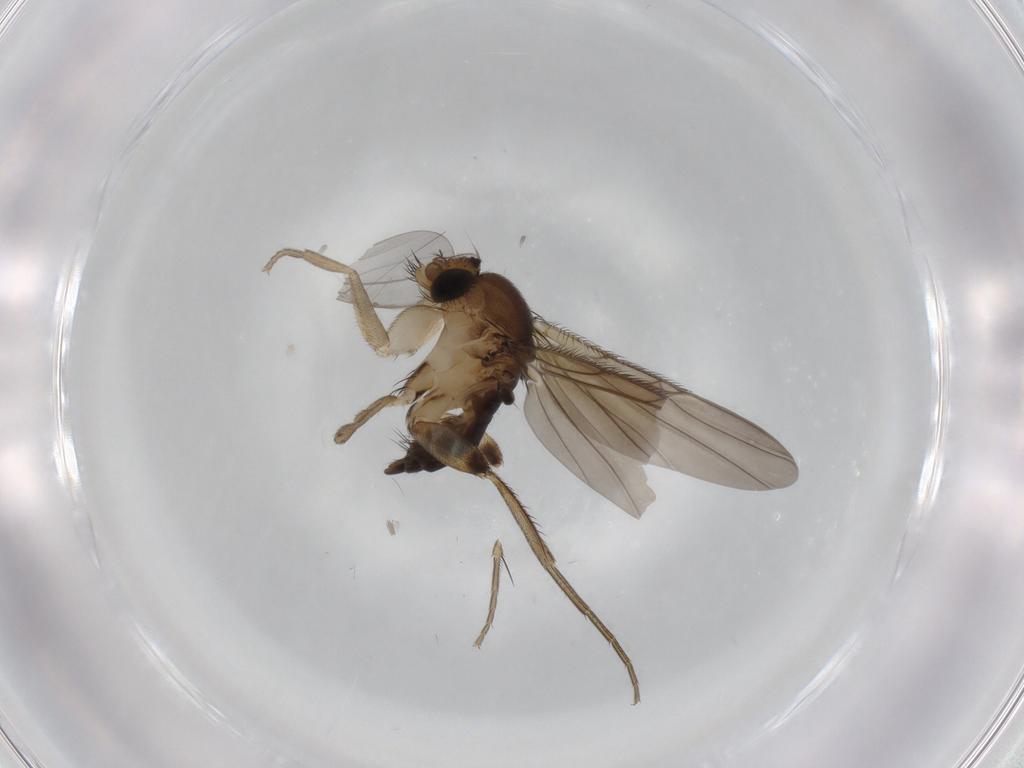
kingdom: Animalia
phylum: Arthropoda
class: Insecta
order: Diptera
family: Phoridae
